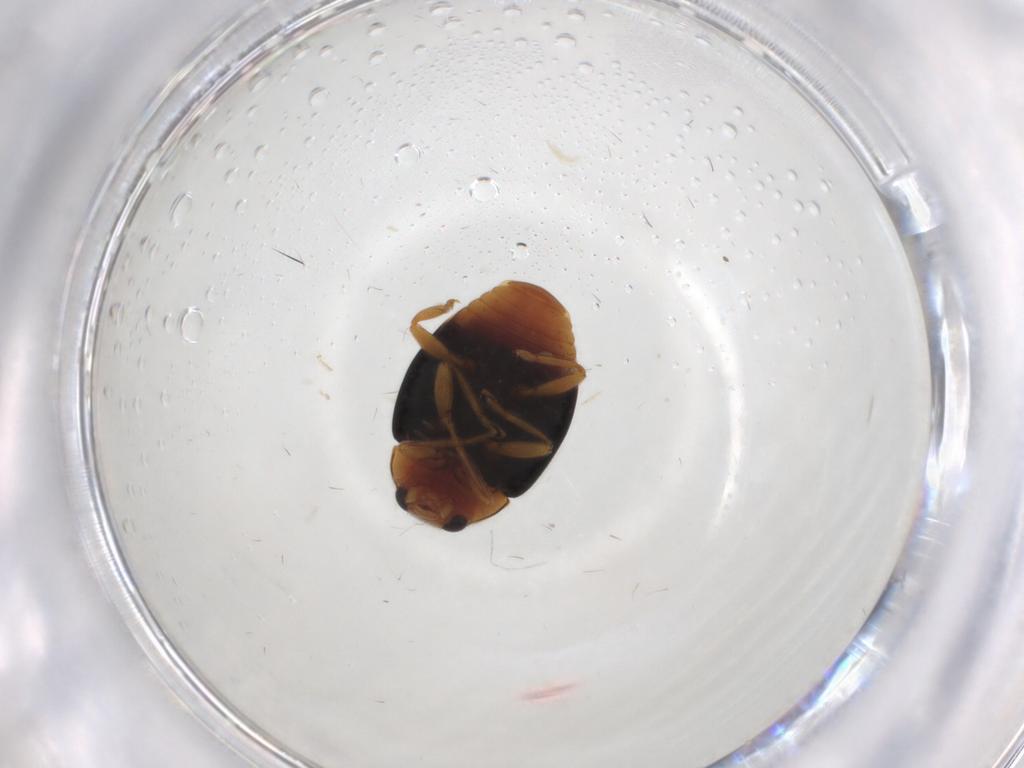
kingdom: Animalia
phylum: Arthropoda
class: Insecta
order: Coleoptera
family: Coccinellidae
